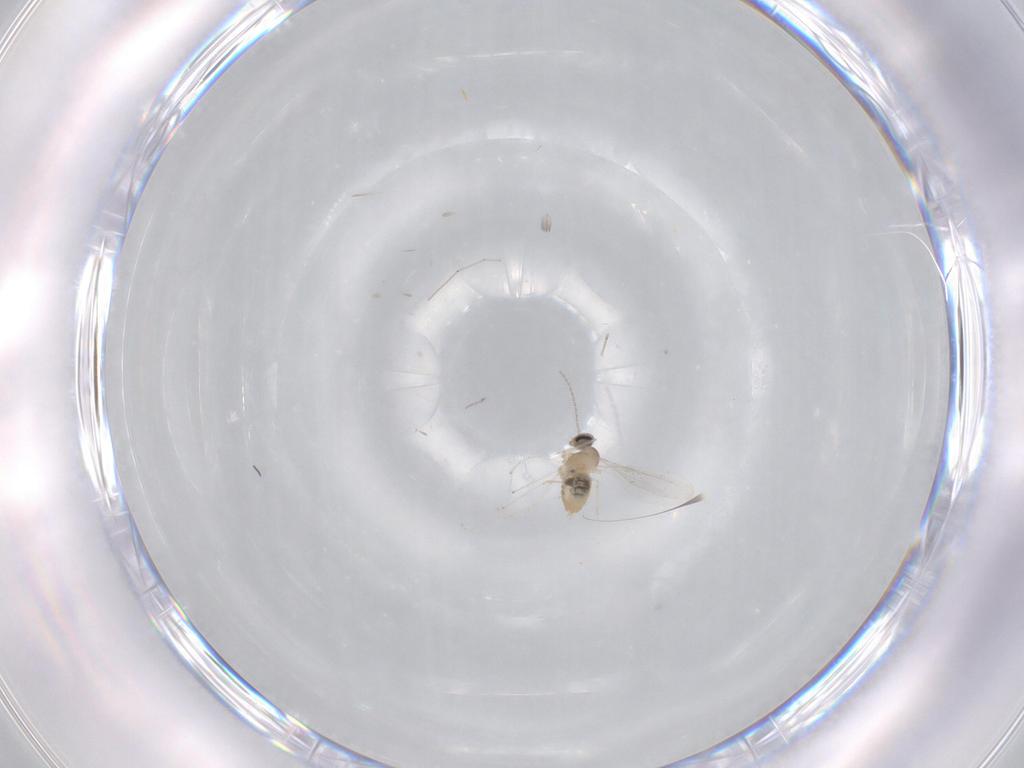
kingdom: Animalia
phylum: Arthropoda
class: Insecta
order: Diptera
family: Cecidomyiidae
